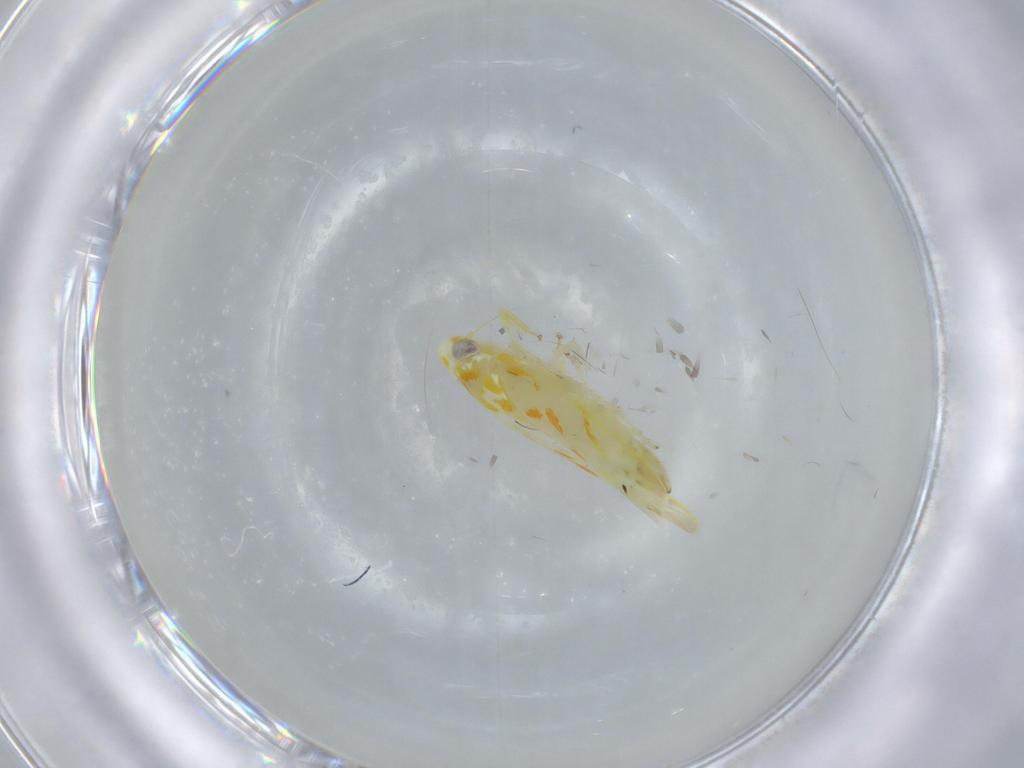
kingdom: Animalia
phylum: Arthropoda
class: Insecta
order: Hemiptera
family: Cicadellidae
